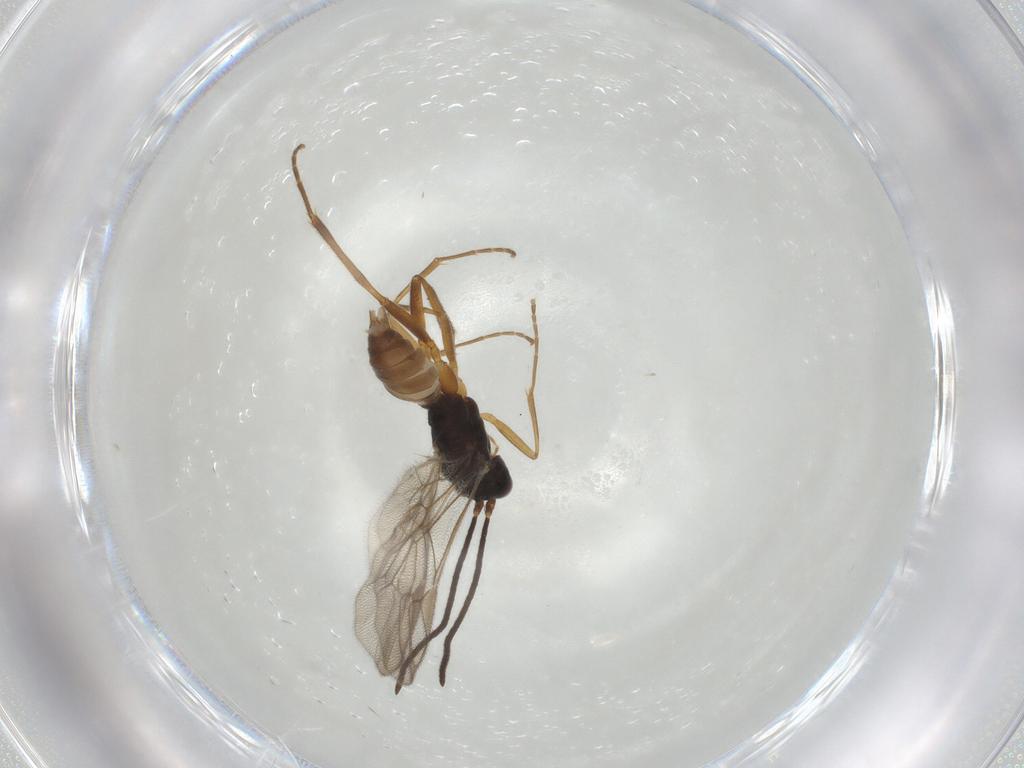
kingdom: Animalia
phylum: Arthropoda
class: Insecta
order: Hymenoptera
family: Ichneumonidae
